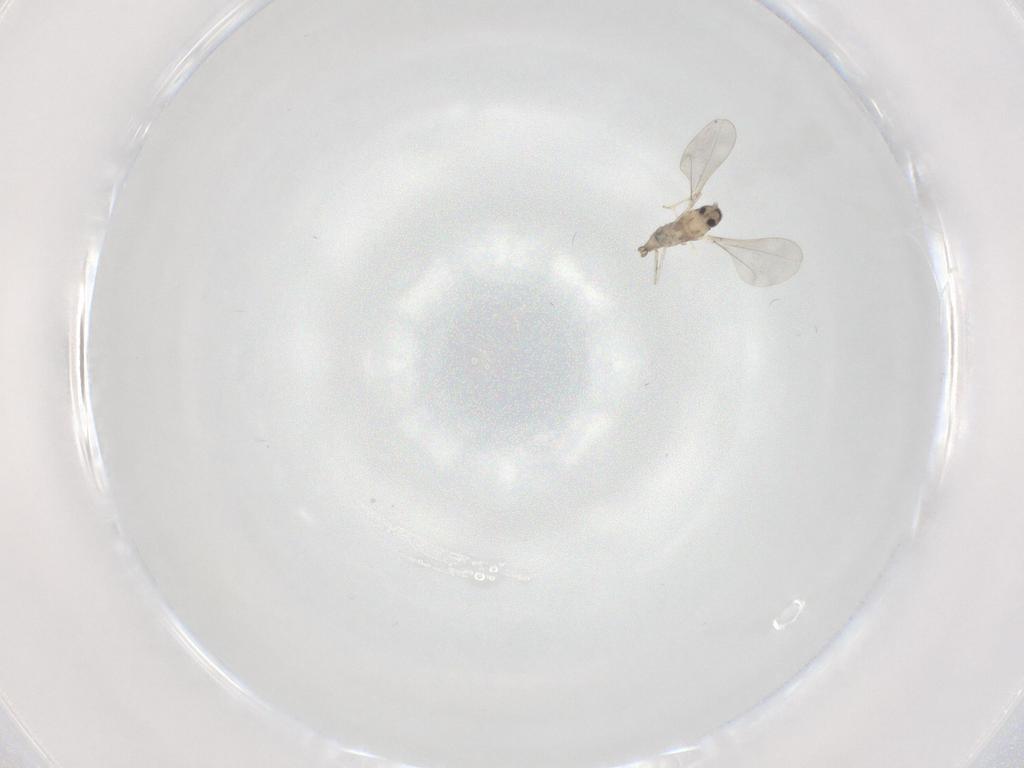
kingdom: Animalia
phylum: Arthropoda
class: Insecta
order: Diptera
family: Cecidomyiidae
